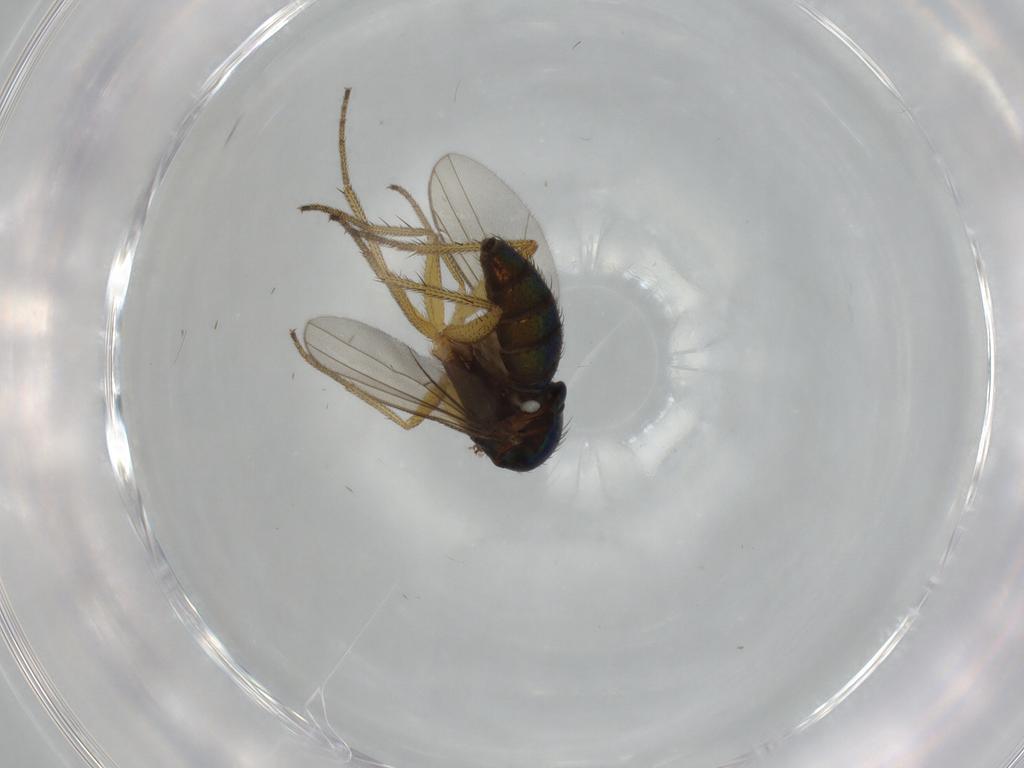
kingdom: Animalia
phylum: Arthropoda
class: Insecta
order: Diptera
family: Dolichopodidae
